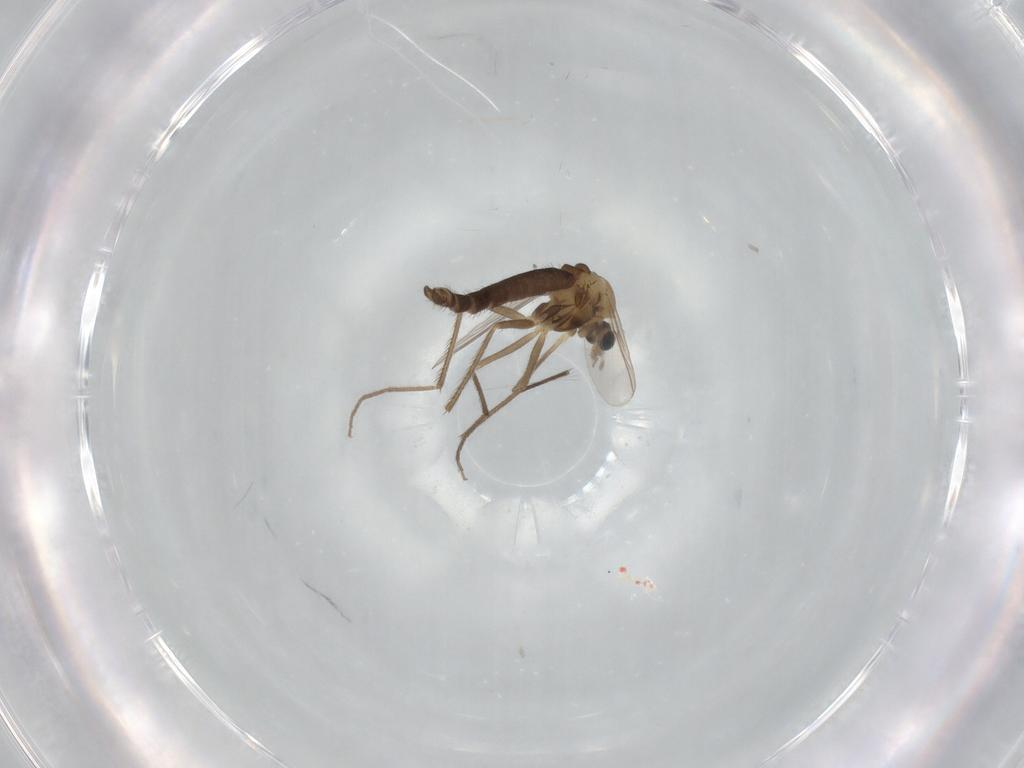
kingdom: Animalia
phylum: Arthropoda
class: Insecta
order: Diptera
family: Chironomidae
